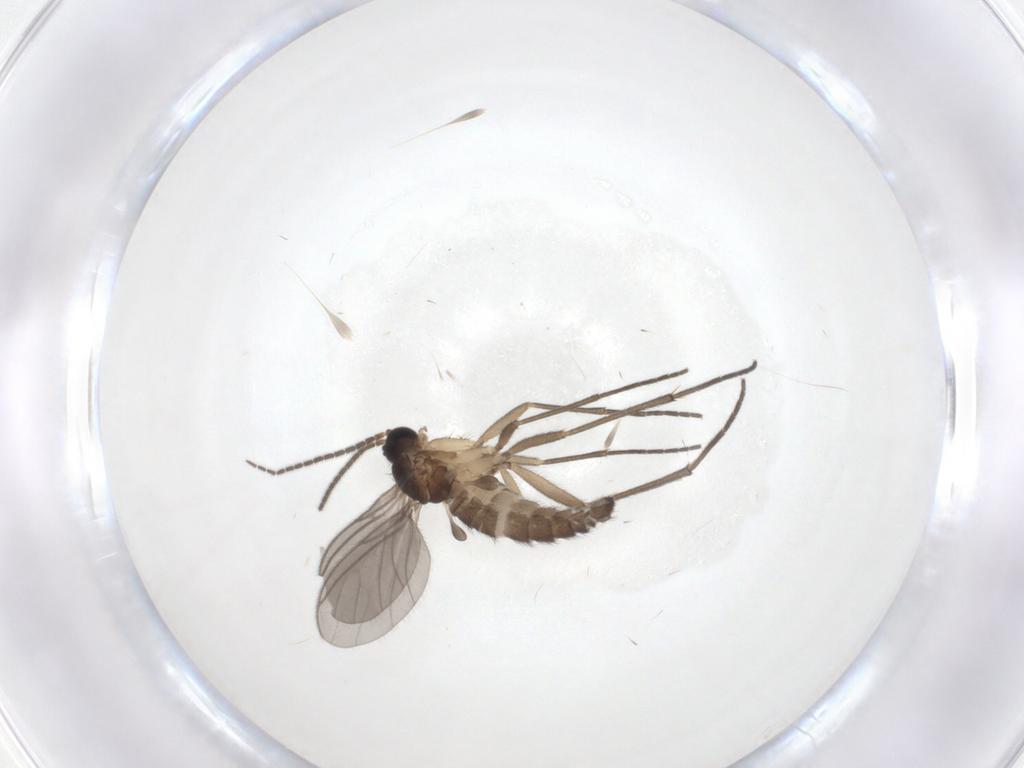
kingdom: Animalia
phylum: Arthropoda
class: Insecta
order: Diptera
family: Sciaridae
